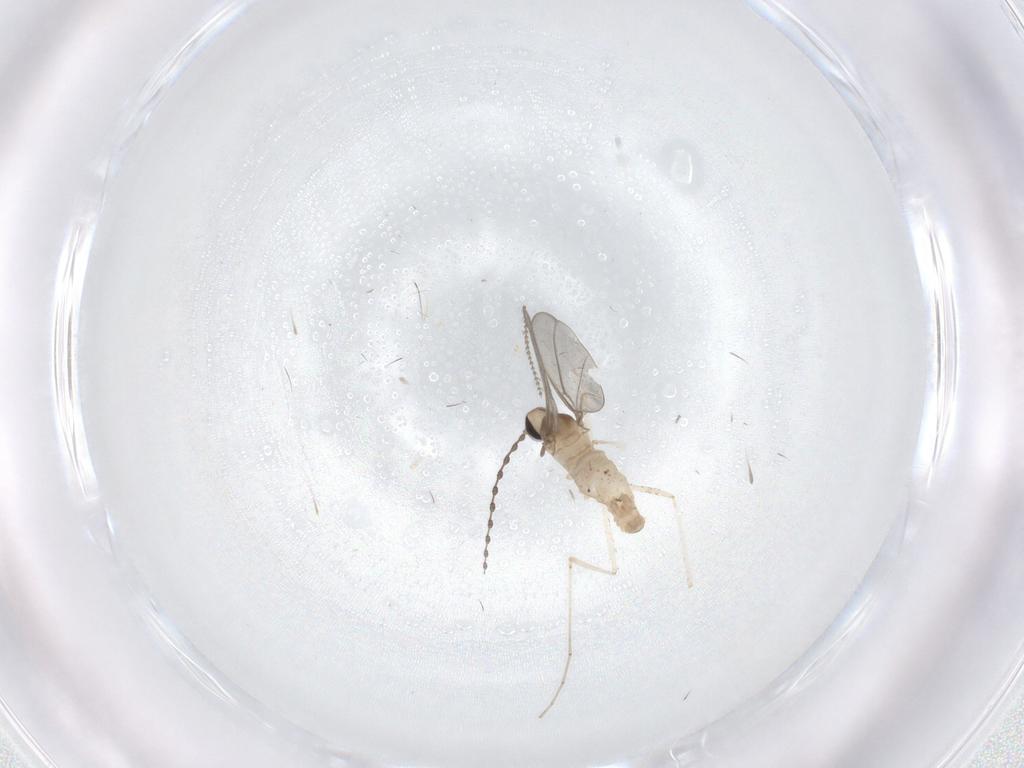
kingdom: Animalia
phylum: Arthropoda
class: Insecta
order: Diptera
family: Cecidomyiidae
